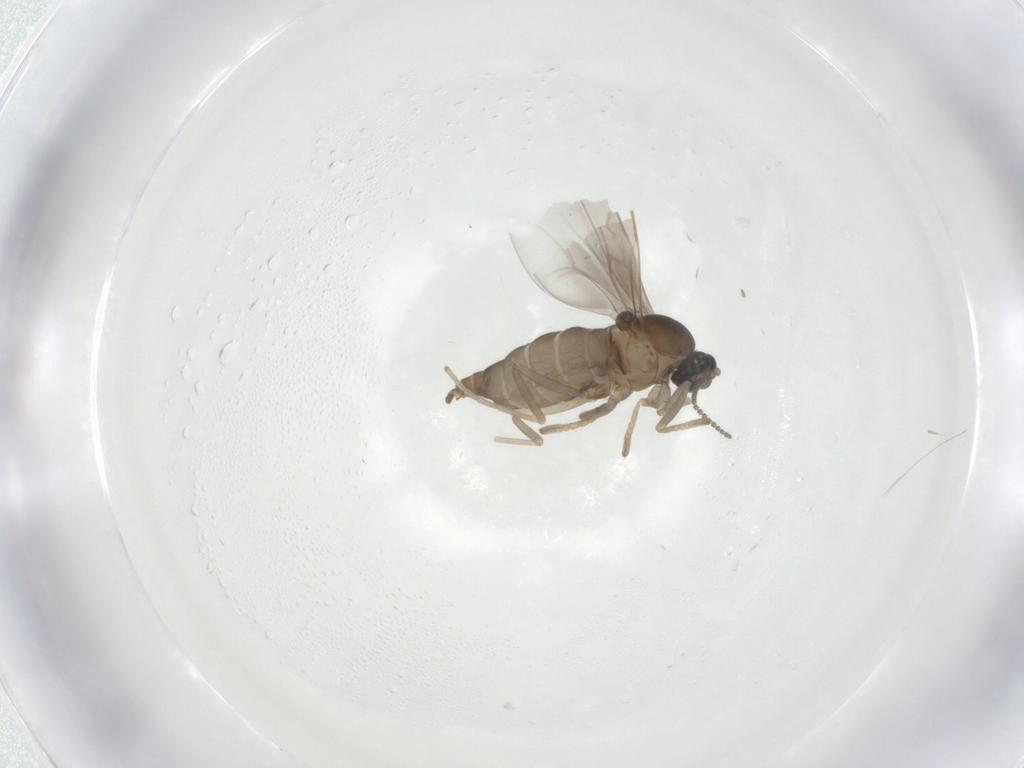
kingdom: Animalia
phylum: Arthropoda
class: Insecta
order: Diptera
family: Cecidomyiidae
